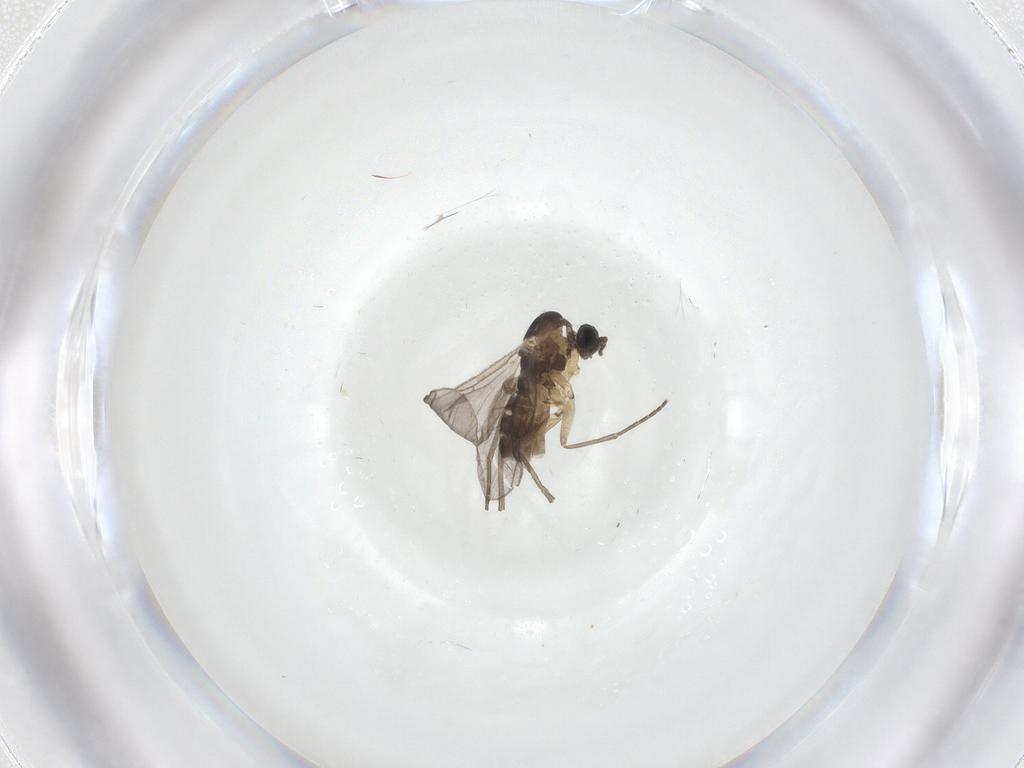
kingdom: Animalia
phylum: Arthropoda
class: Insecta
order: Diptera
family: Sciaridae
